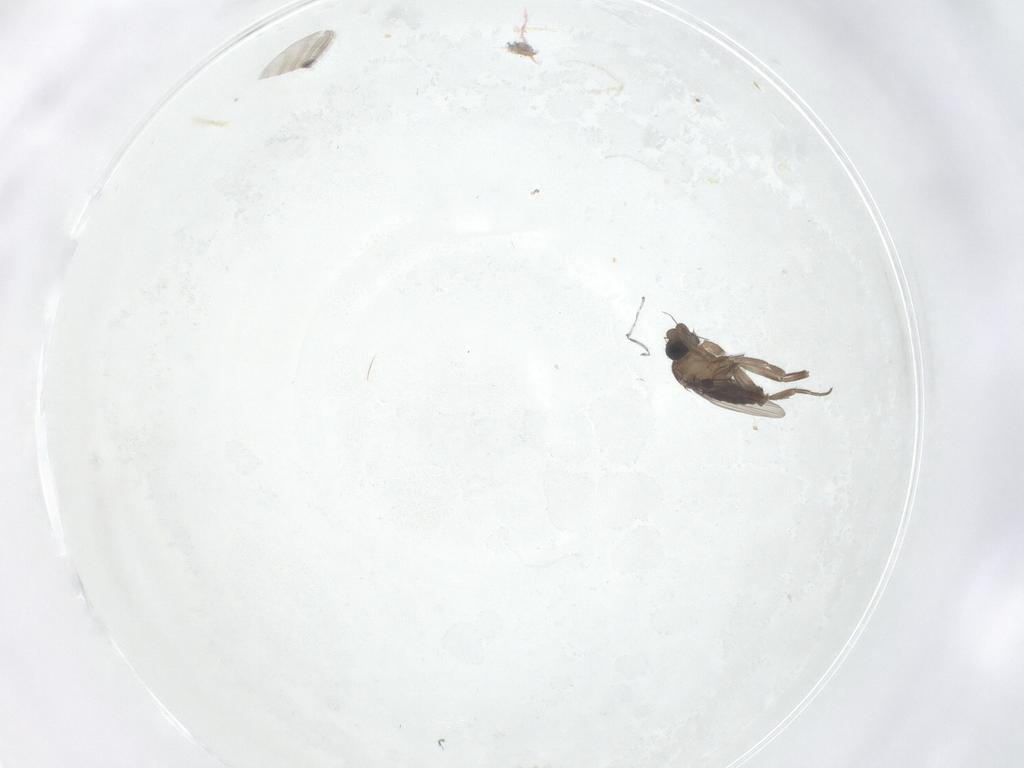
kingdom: Animalia
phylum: Arthropoda
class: Insecta
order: Diptera
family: Phoridae
